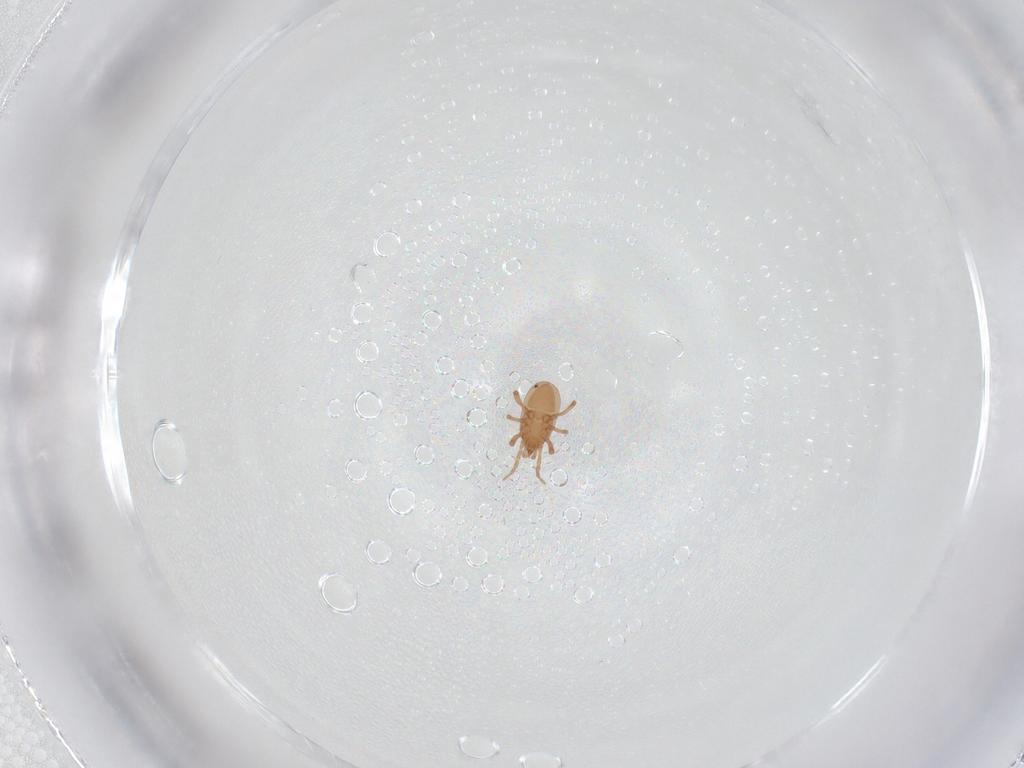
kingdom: Animalia
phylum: Arthropoda
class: Arachnida
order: Mesostigmata
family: Ologamasidae
